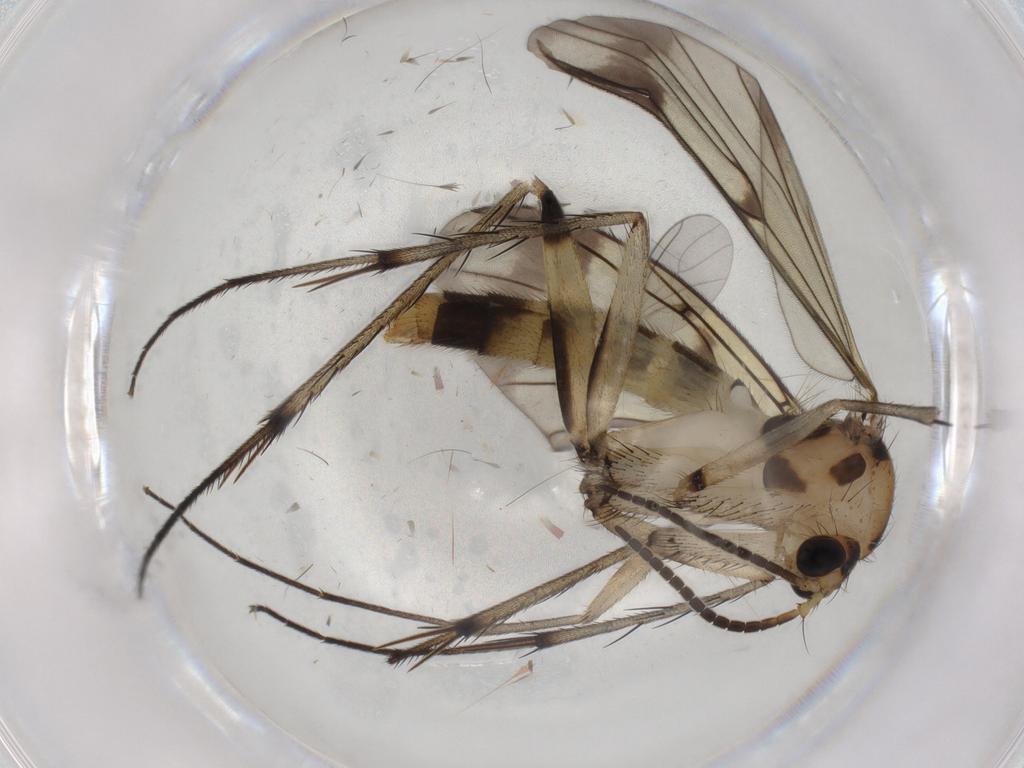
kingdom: Animalia
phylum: Arthropoda
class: Insecta
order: Diptera
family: Mycetophilidae
